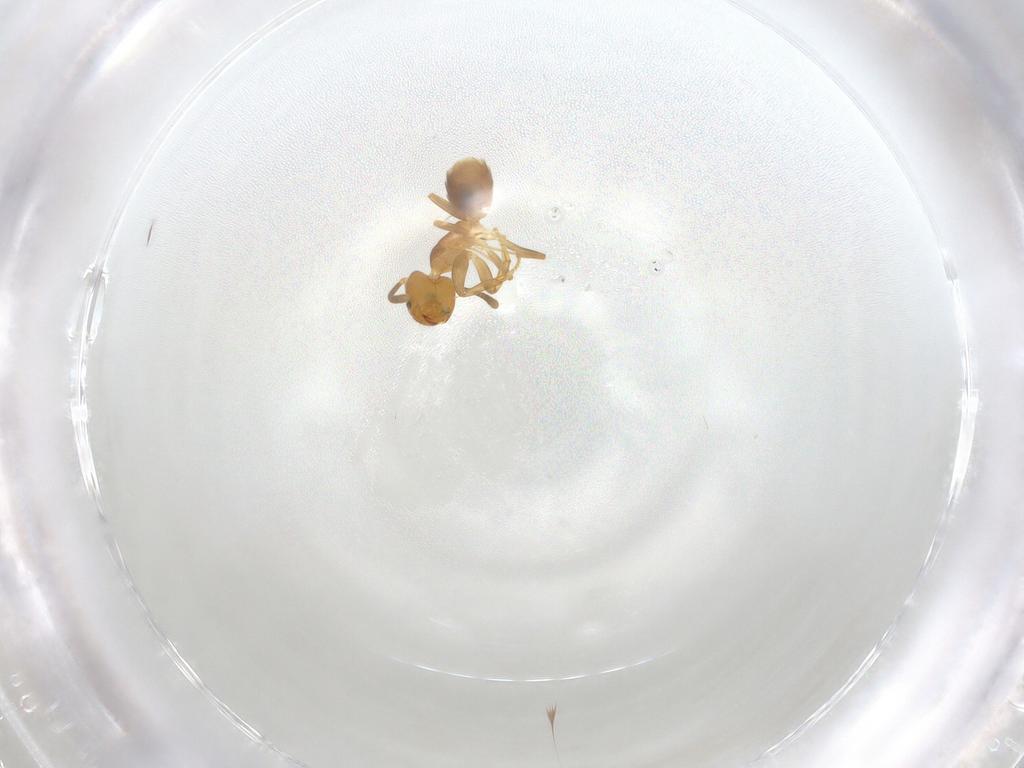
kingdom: Animalia
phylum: Arthropoda
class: Insecta
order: Hymenoptera
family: Formicidae
